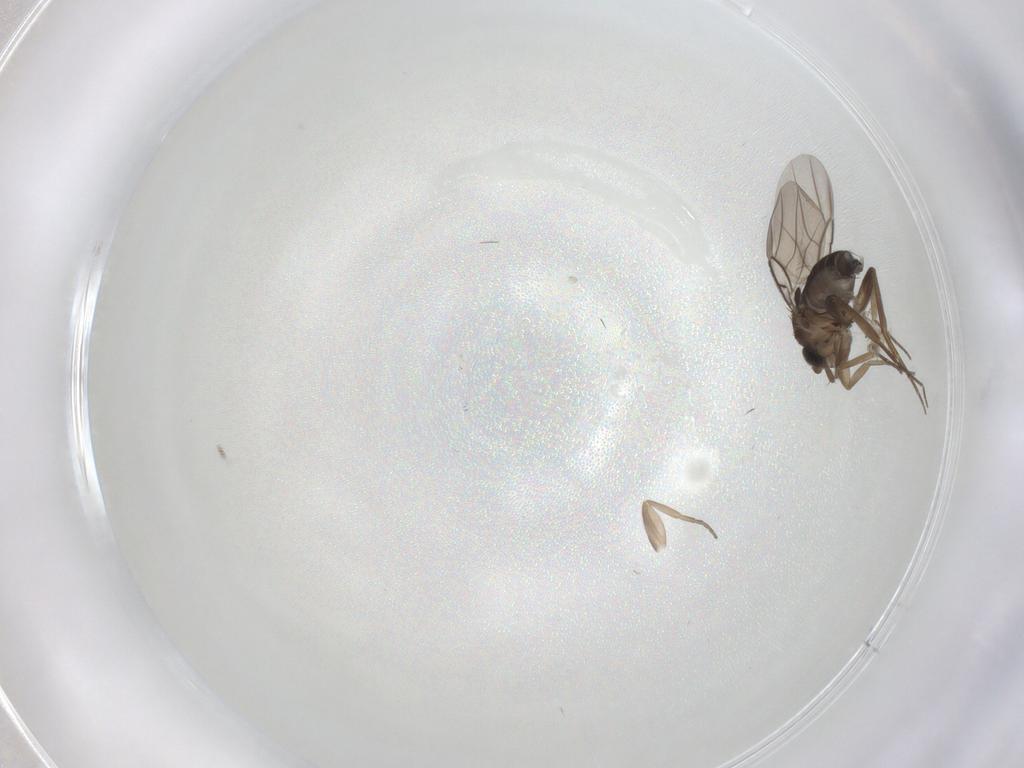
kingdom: Animalia
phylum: Arthropoda
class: Insecta
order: Diptera
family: Phoridae
